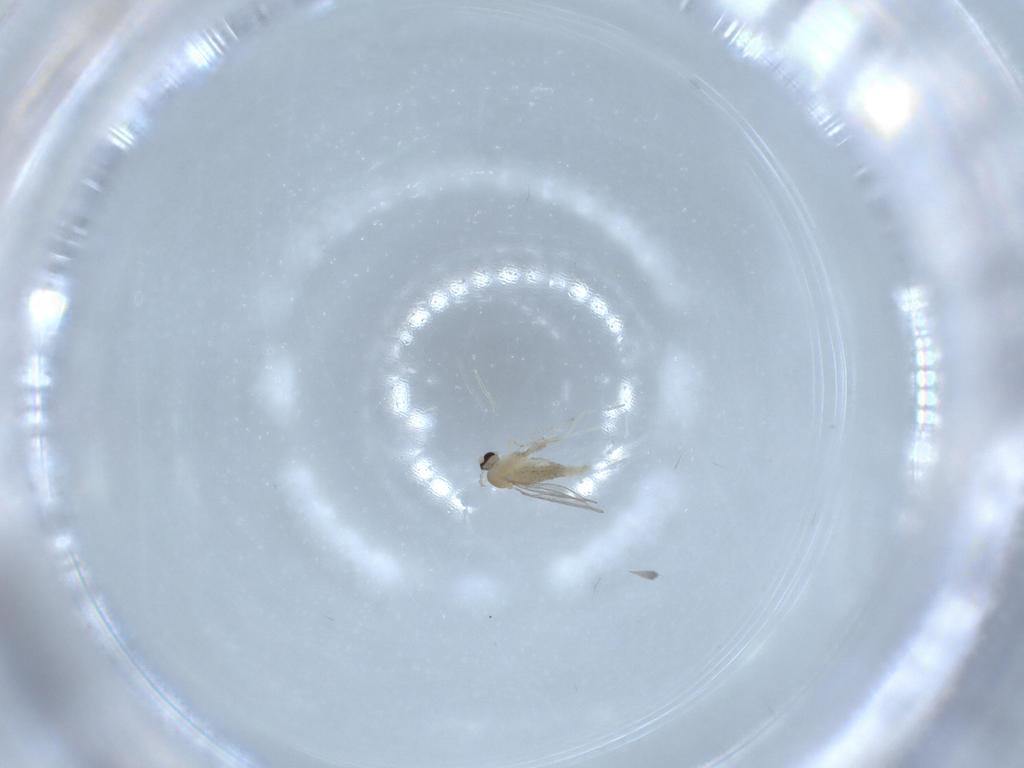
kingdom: Animalia
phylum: Arthropoda
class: Insecta
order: Diptera
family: Cecidomyiidae
